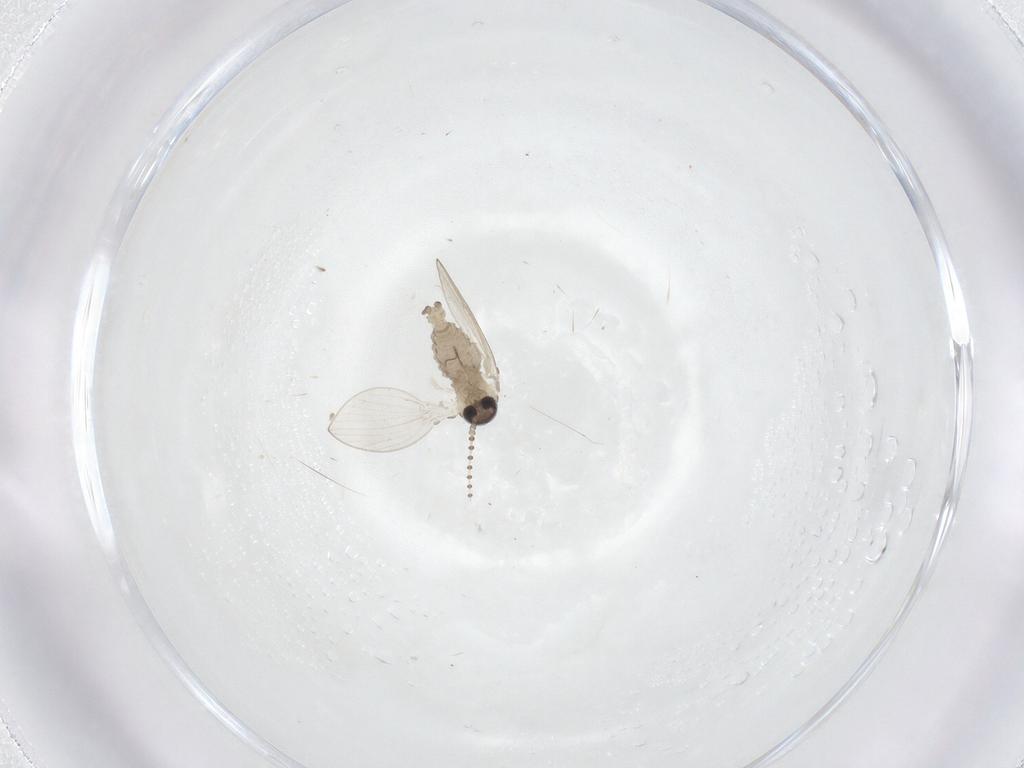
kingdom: Animalia
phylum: Arthropoda
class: Insecta
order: Diptera
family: Psychodidae
